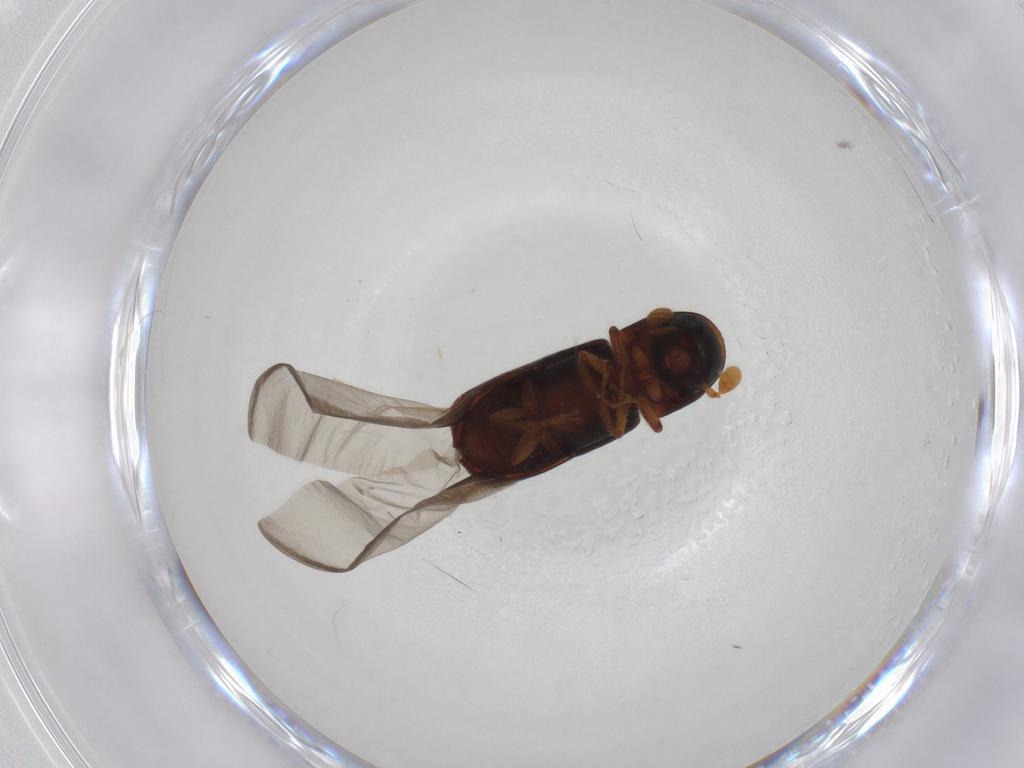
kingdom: Animalia
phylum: Arthropoda
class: Insecta
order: Coleoptera
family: Curculionidae
